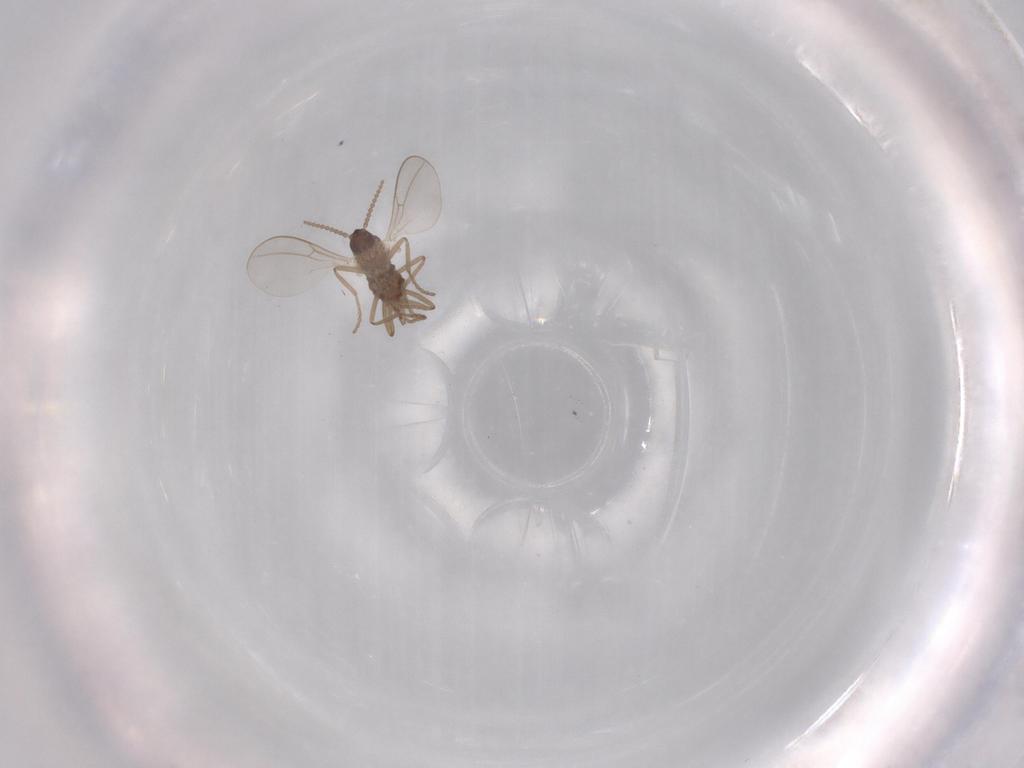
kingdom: Animalia
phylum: Arthropoda
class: Insecta
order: Diptera
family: Cecidomyiidae
